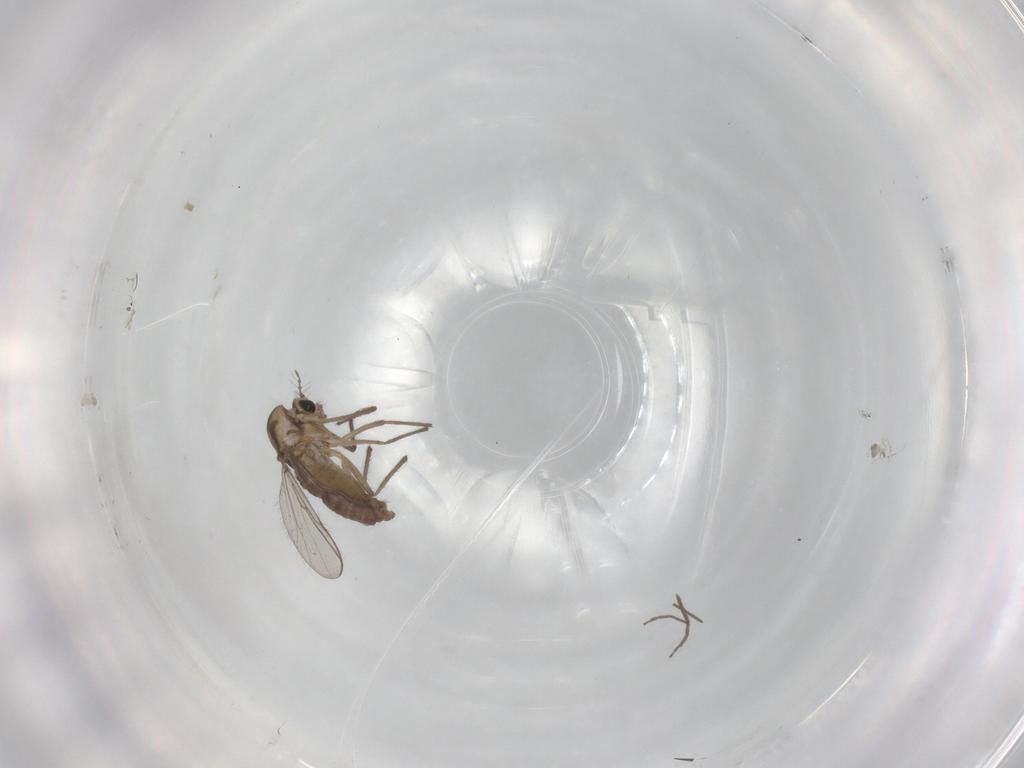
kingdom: Animalia
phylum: Arthropoda
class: Insecta
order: Diptera
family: Chironomidae
